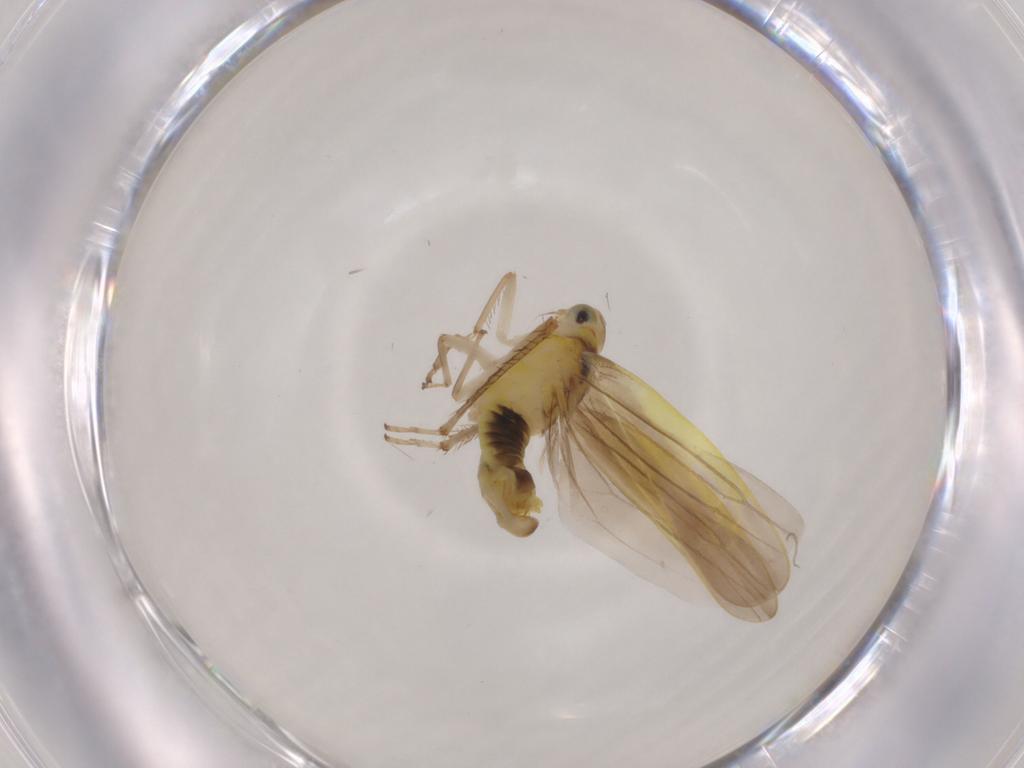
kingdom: Animalia
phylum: Arthropoda
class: Insecta
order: Hemiptera
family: Cicadellidae
